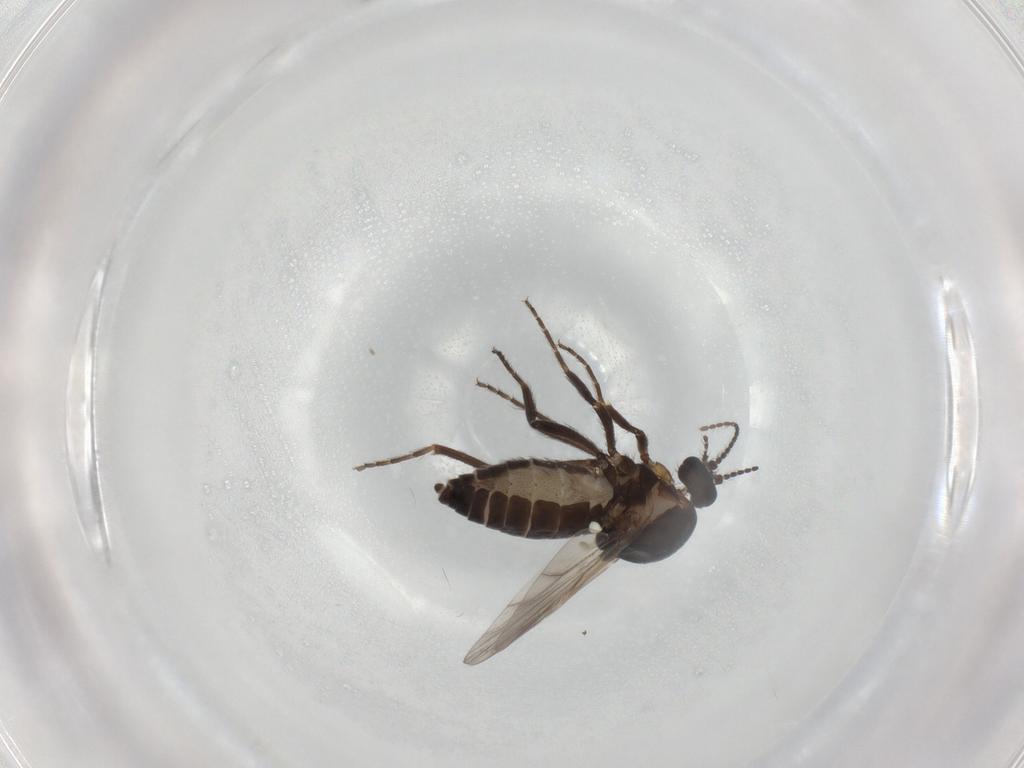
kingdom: Animalia
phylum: Arthropoda
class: Insecta
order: Diptera
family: Ceratopogonidae
